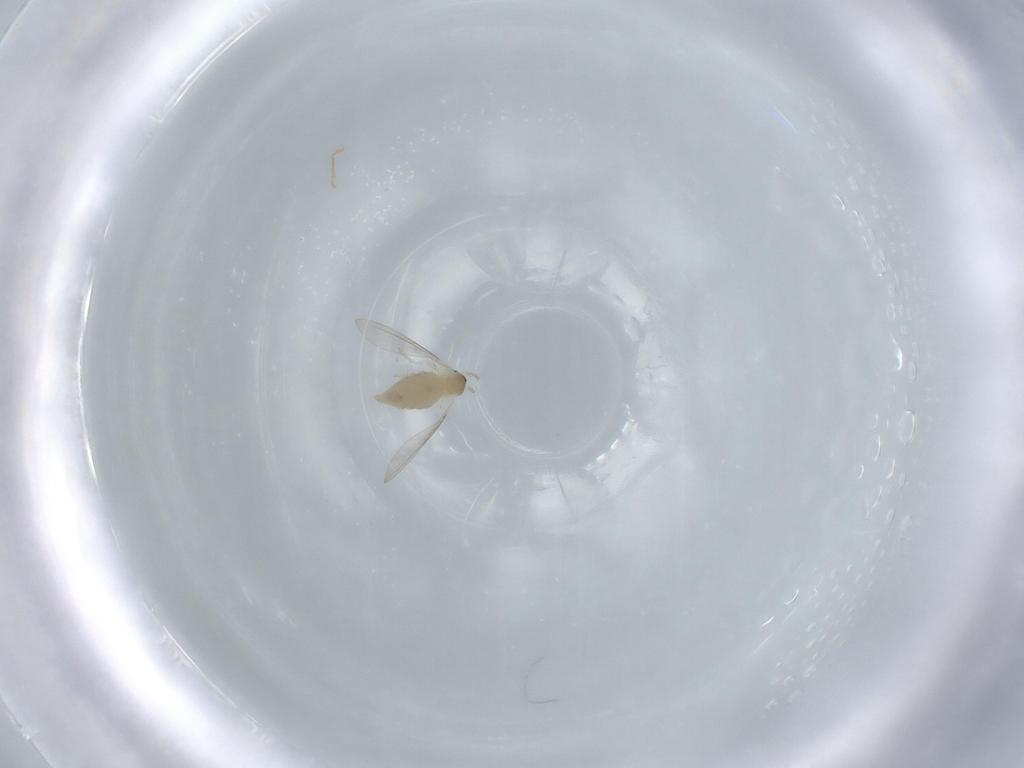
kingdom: Animalia
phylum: Arthropoda
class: Insecta
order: Diptera
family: Cecidomyiidae
